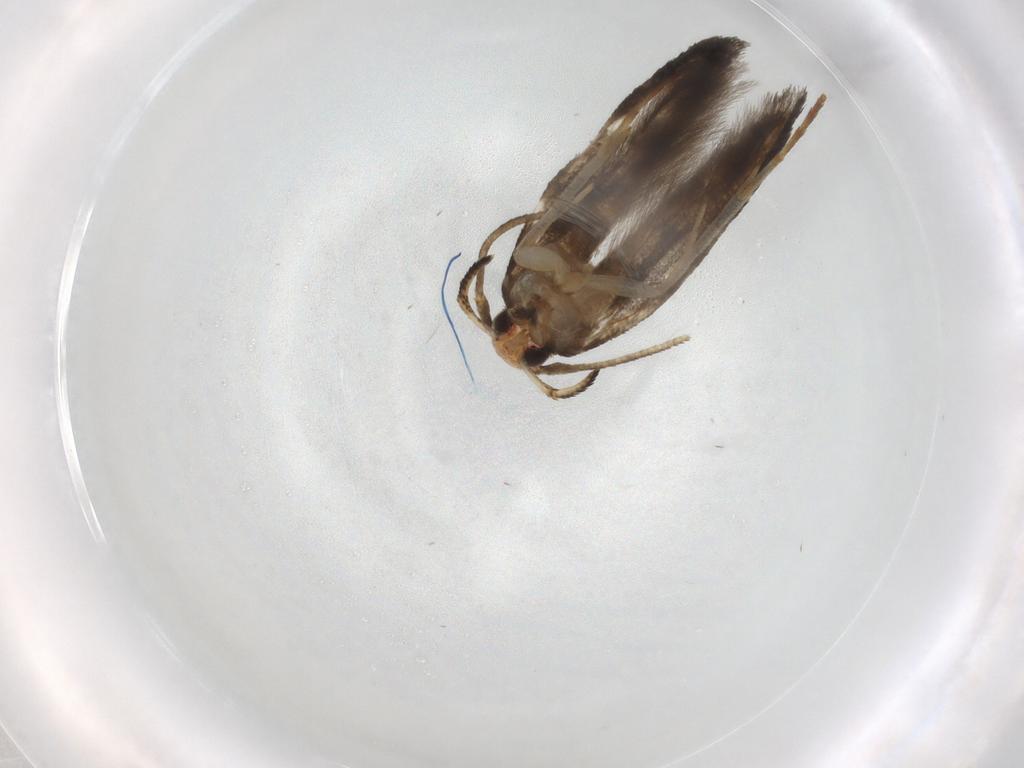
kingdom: Animalia
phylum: Arthropoda
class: Insecta
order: Lepidoptera
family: Cosmopterigidae
